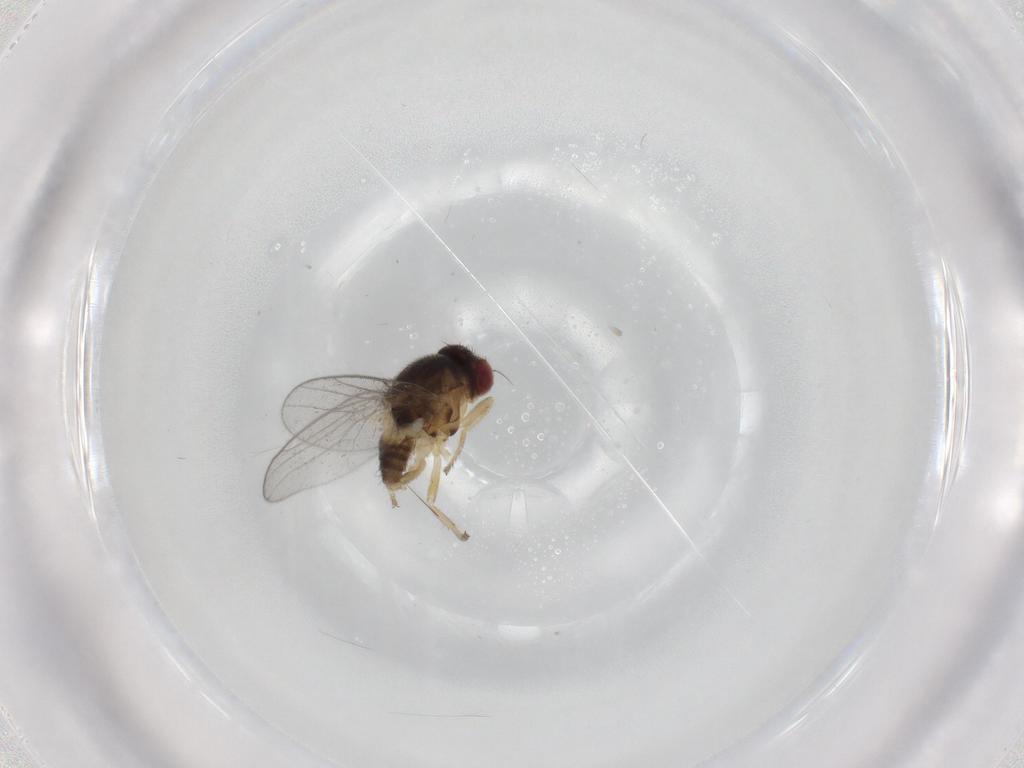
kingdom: Animalia
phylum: Arthropoda
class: Insecta
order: Diptera
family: Chloropidae
